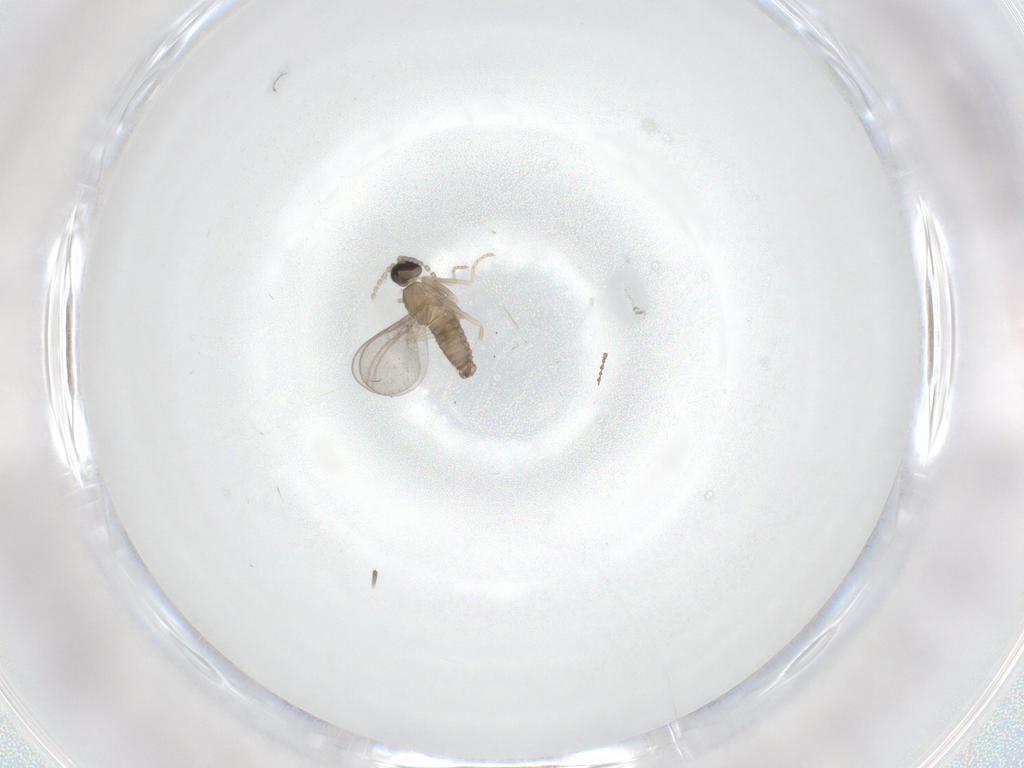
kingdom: Animalia
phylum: Arthropoda
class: Insecta
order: Diptera
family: Cecidomyiidae
